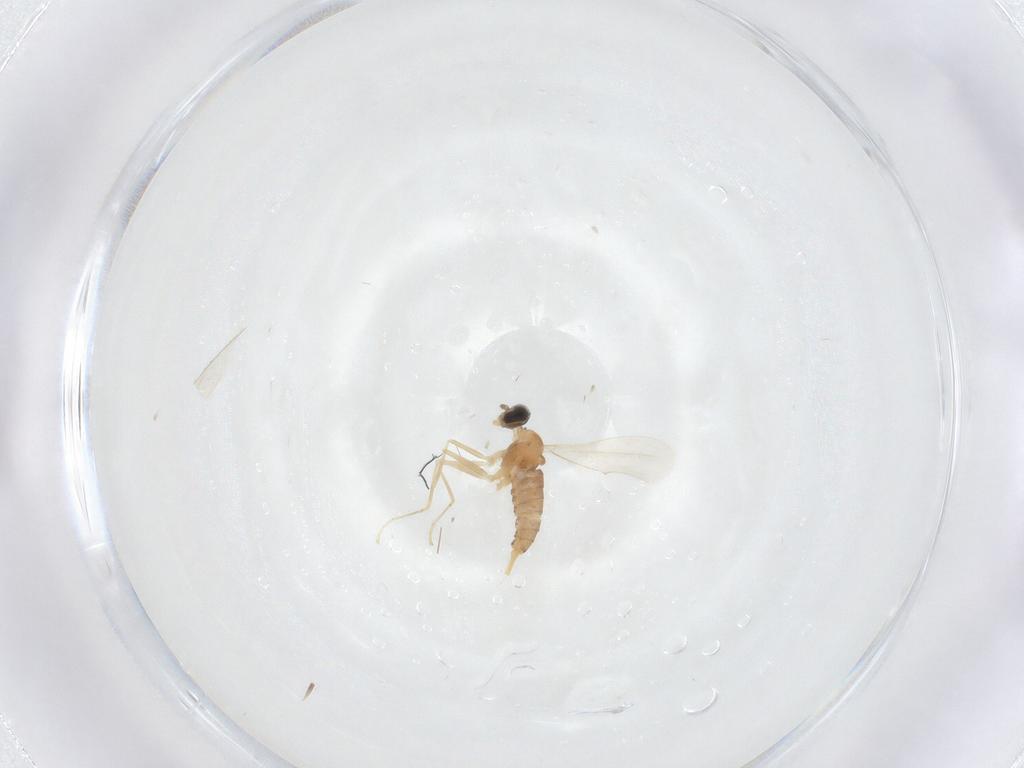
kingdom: Animalia
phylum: Arthropoda
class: Insecta
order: Diptera
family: Cecidomyiidae
